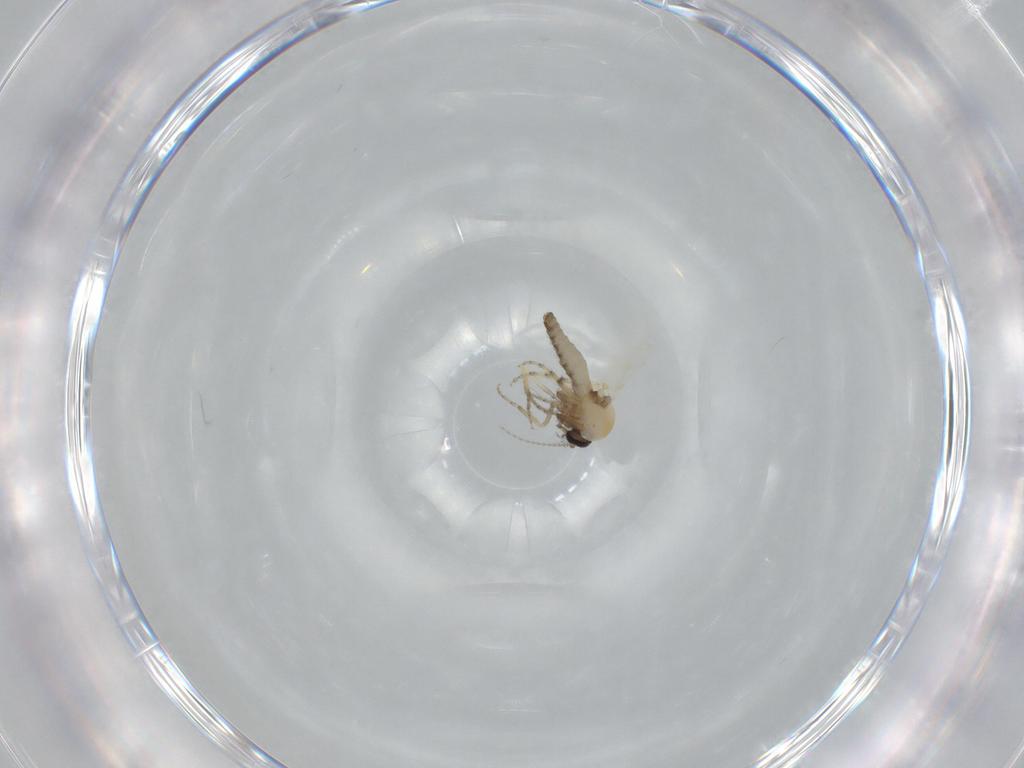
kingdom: Animalia
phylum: Arthropoda
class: Insecta
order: Diptera
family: Ceratopogonidae
